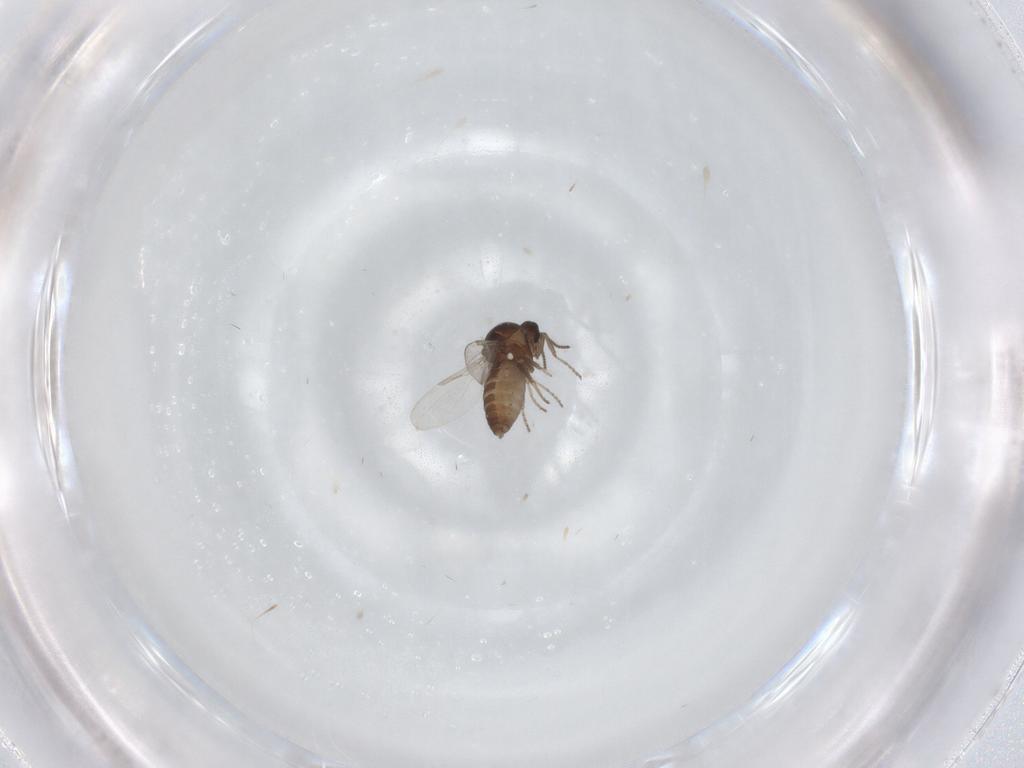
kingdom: Animalia
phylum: Arthropoda
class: Insecta
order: Diptera
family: Ceratopogonidae
